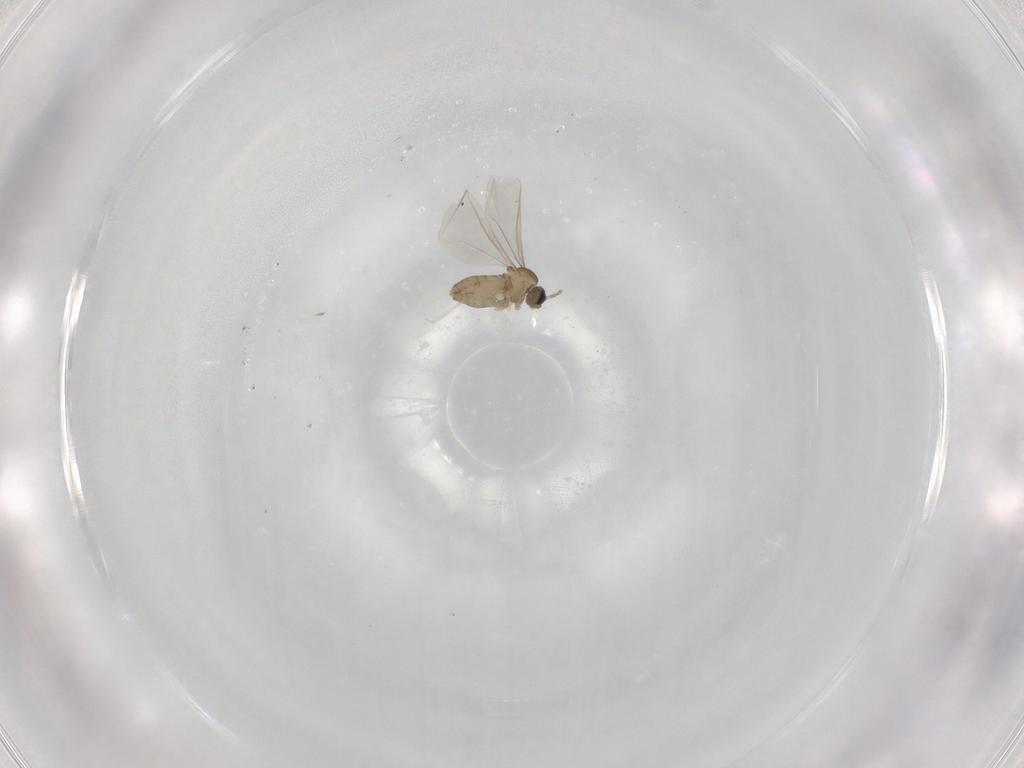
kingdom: Animalia
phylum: Arthropoda
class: Insecta
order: Diptera
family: Cecidomyiidae
